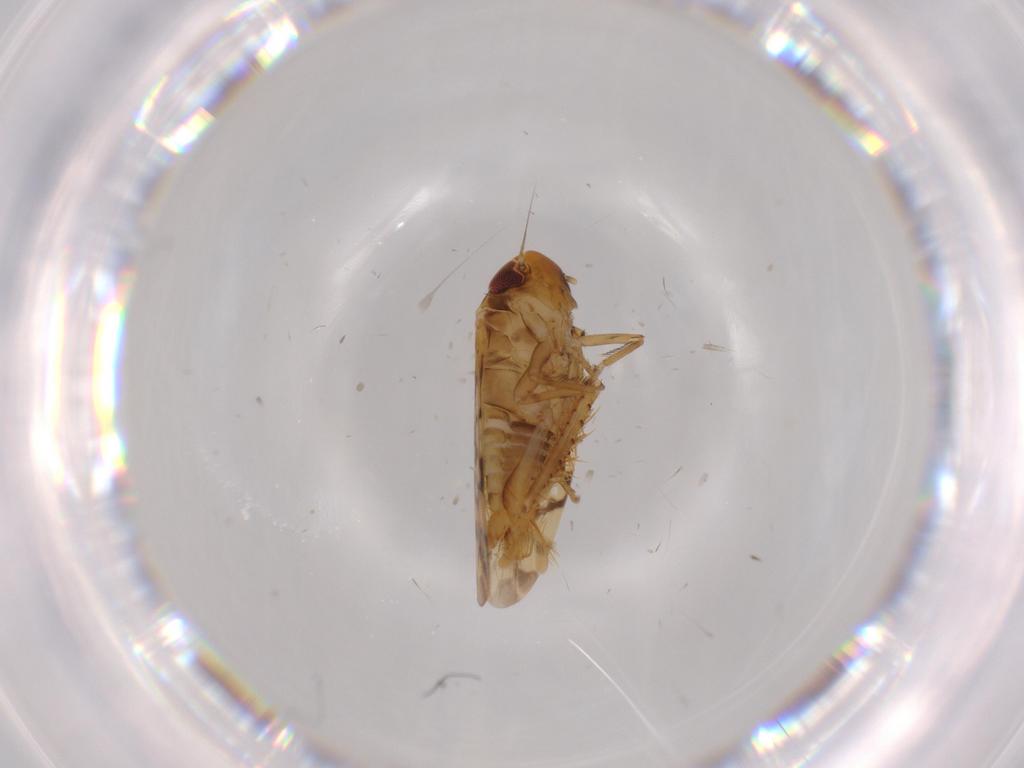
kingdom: Animalia
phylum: Arthropoda
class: Insecta
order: Hemiptera
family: Cicadellidae
